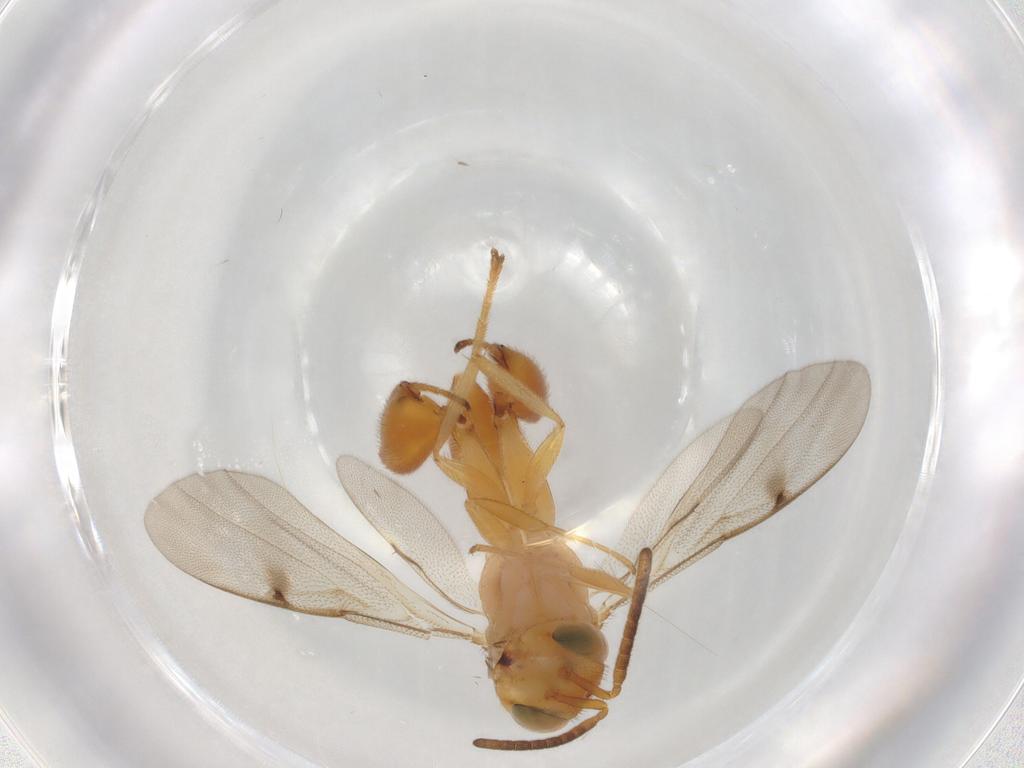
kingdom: Animalia
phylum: Arthropoda
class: Insecta
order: Hymenoptera
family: Chalcididae
